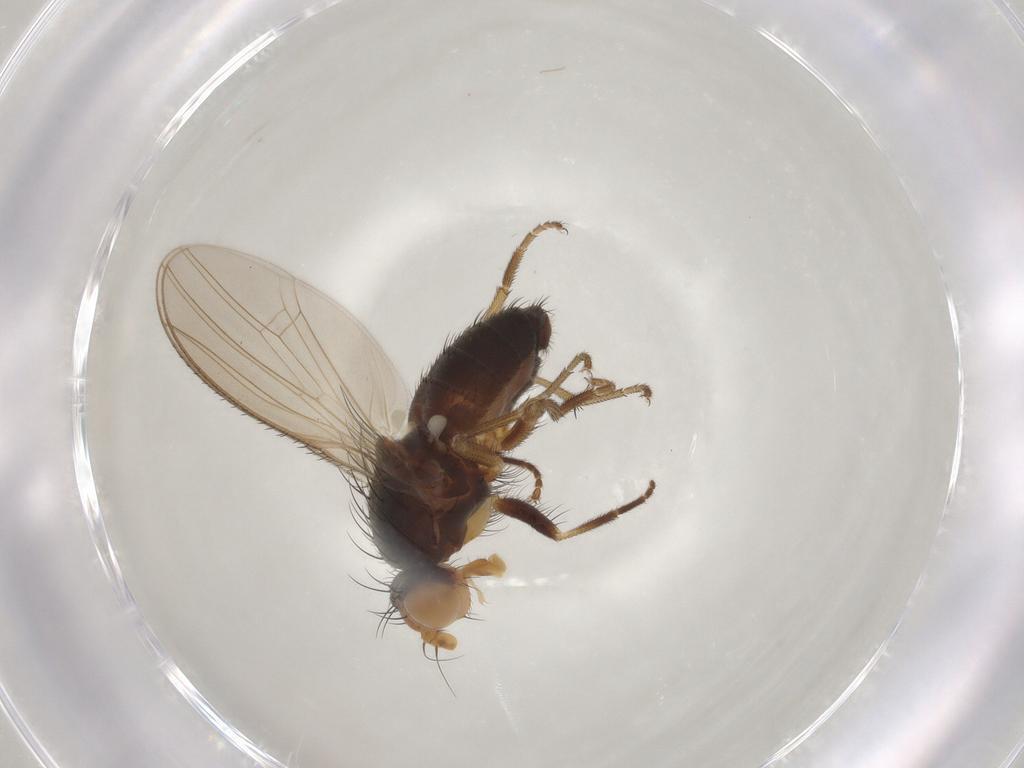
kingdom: Animalia
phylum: Arthropoda
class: Insecta
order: Diptera
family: Heleomyzidae
